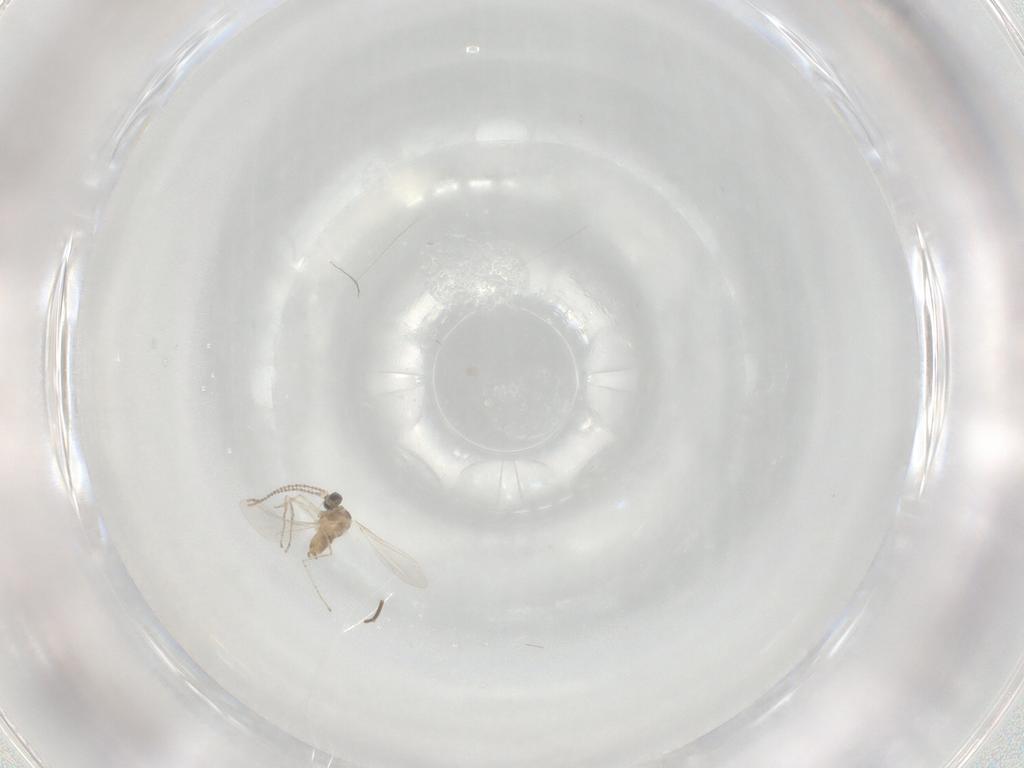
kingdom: Animalia
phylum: Arthropoda
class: Insecta
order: Diptera
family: Cecidomyiidae
